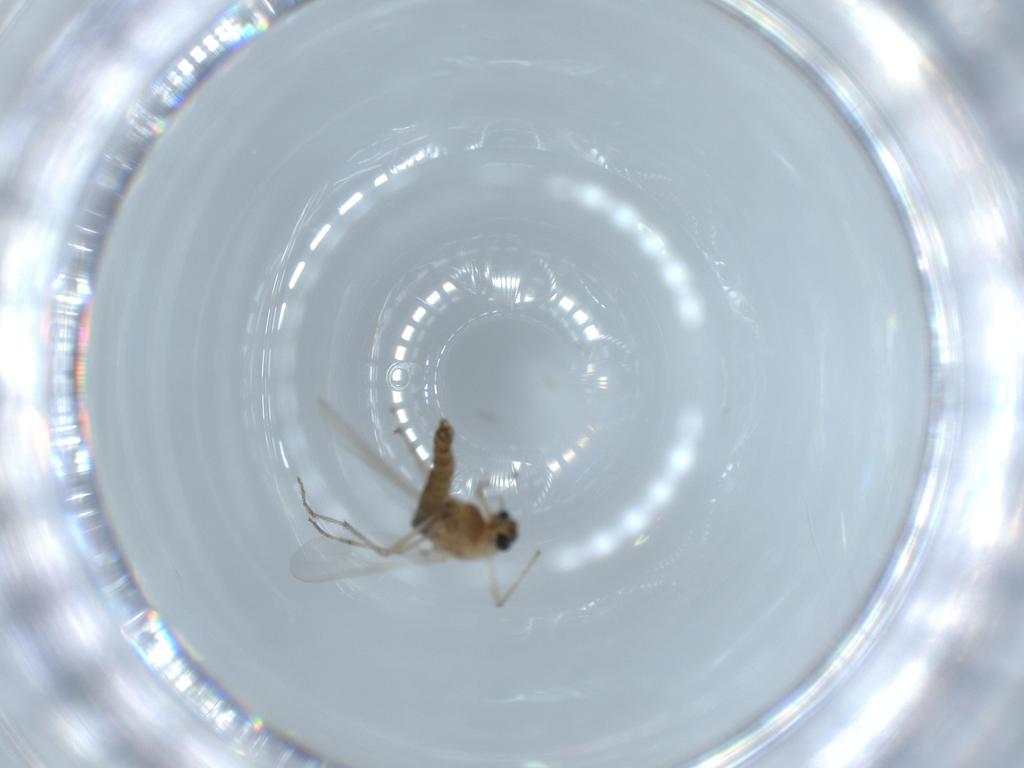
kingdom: Animalia
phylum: Arthropoda
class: Insecta
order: Diptera
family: Chironomidae
